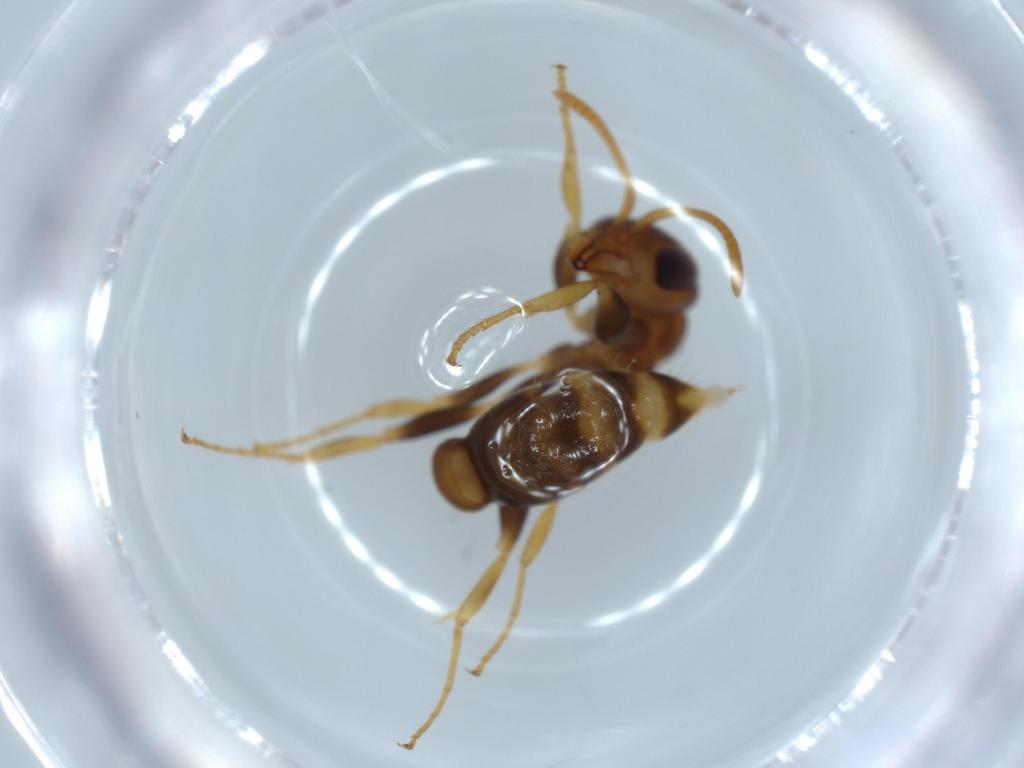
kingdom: Animalia
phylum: Arthropoda
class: Insecta
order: Hymenoptera
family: Formicidae
